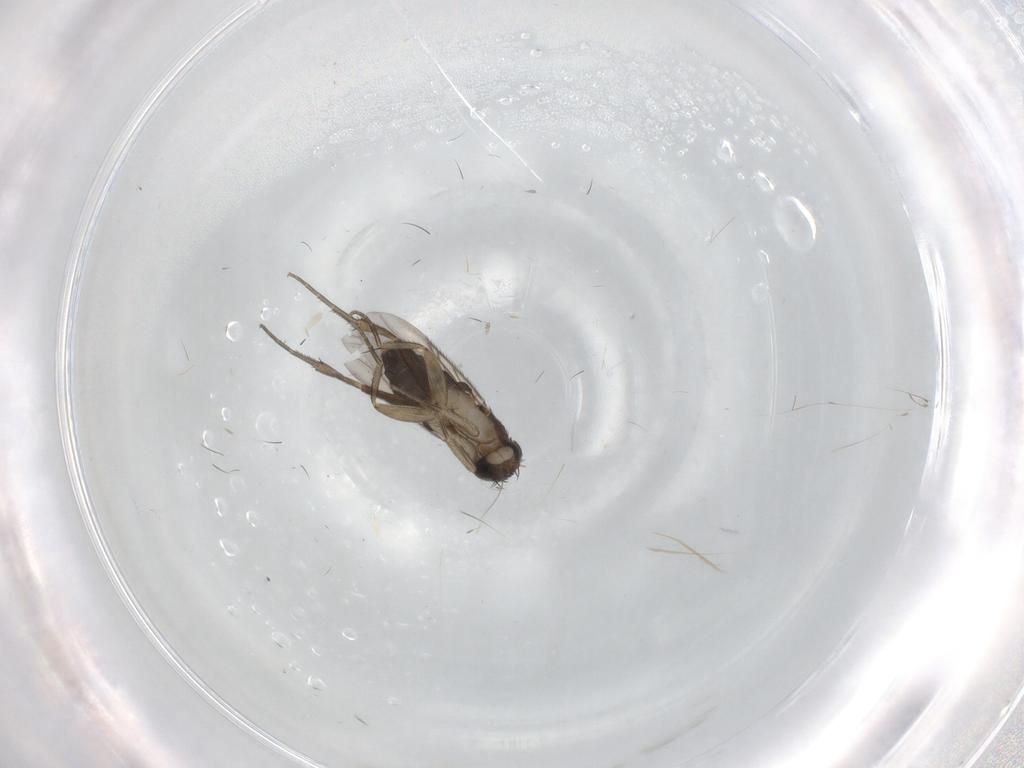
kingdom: Animalia
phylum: Arthropoda
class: Insecta
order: Diptera
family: Phoridae
